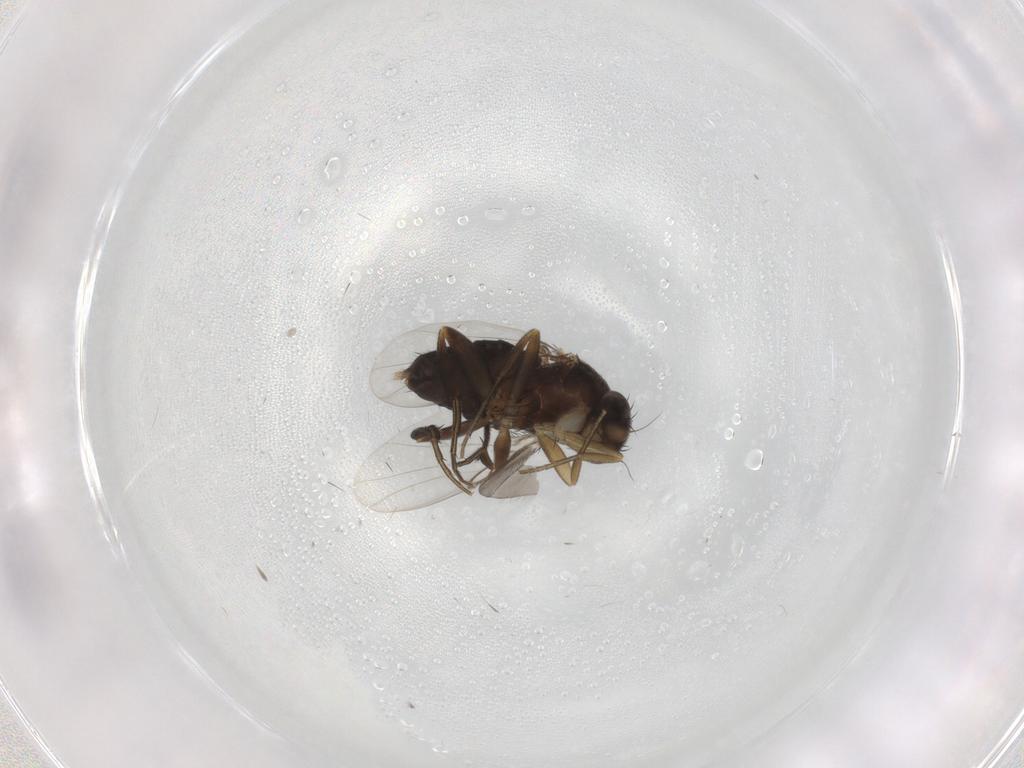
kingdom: Animalia
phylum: Arthropoda
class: Insecta
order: Diptera
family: Phoridae
